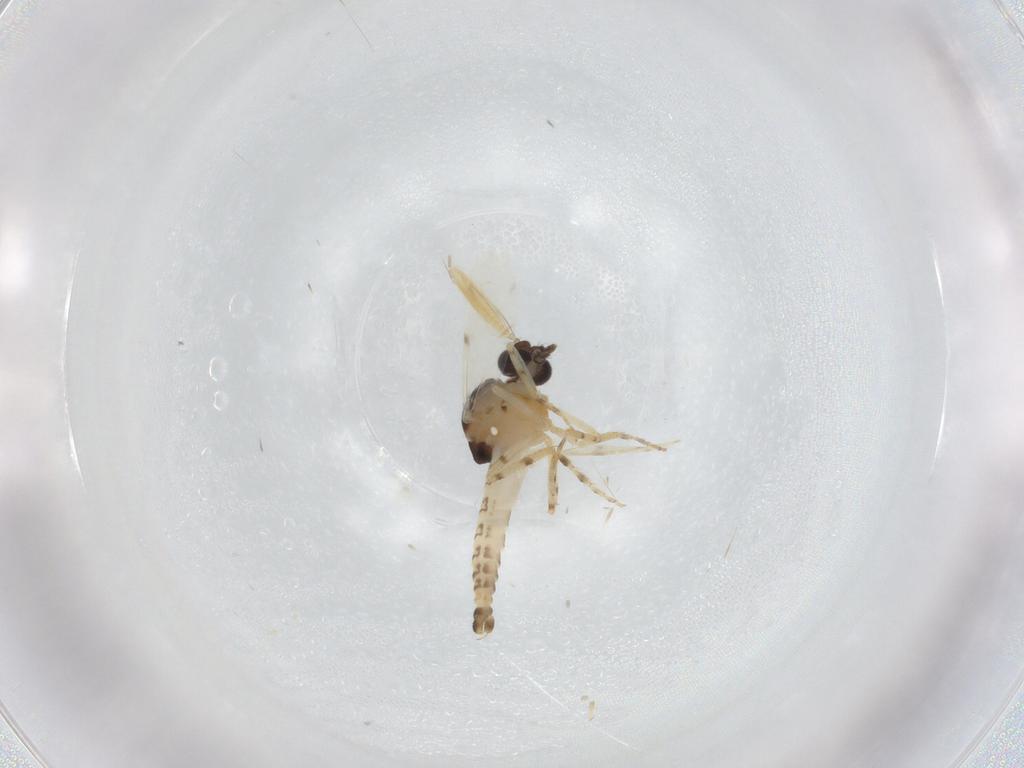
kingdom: Animalia
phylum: Arthropoda
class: Insecta
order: Diptera
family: Ceratopogonidae
